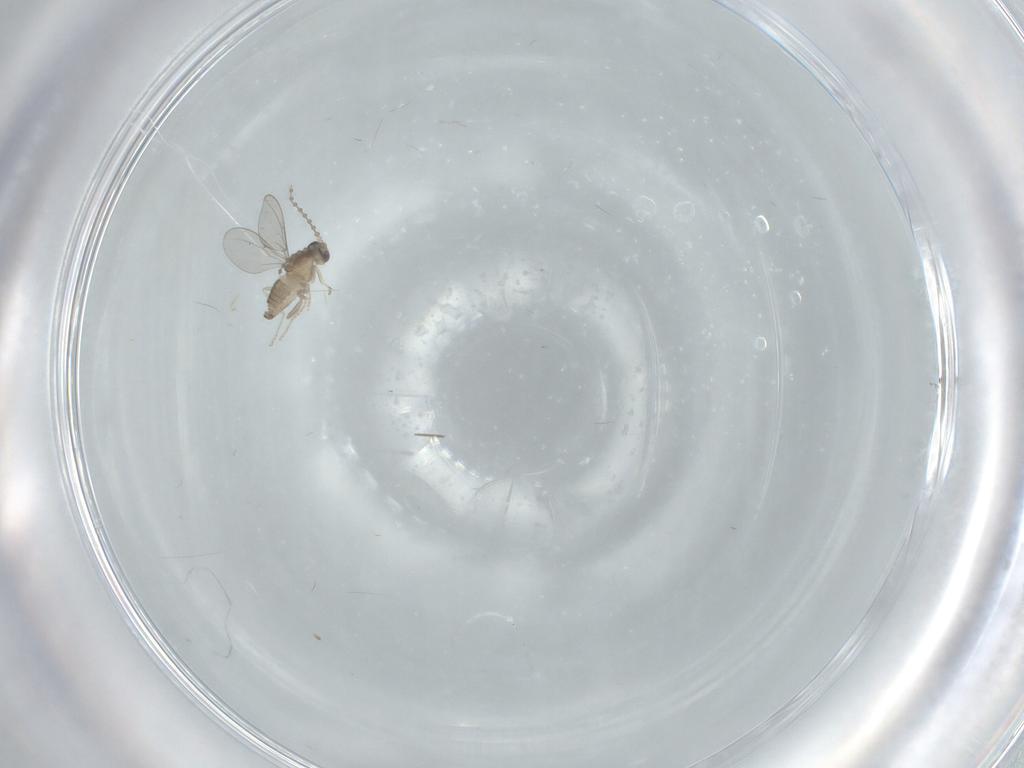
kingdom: Animalia
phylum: Arthropoda
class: Insecta
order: Diptera
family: Cecidomyiidae
